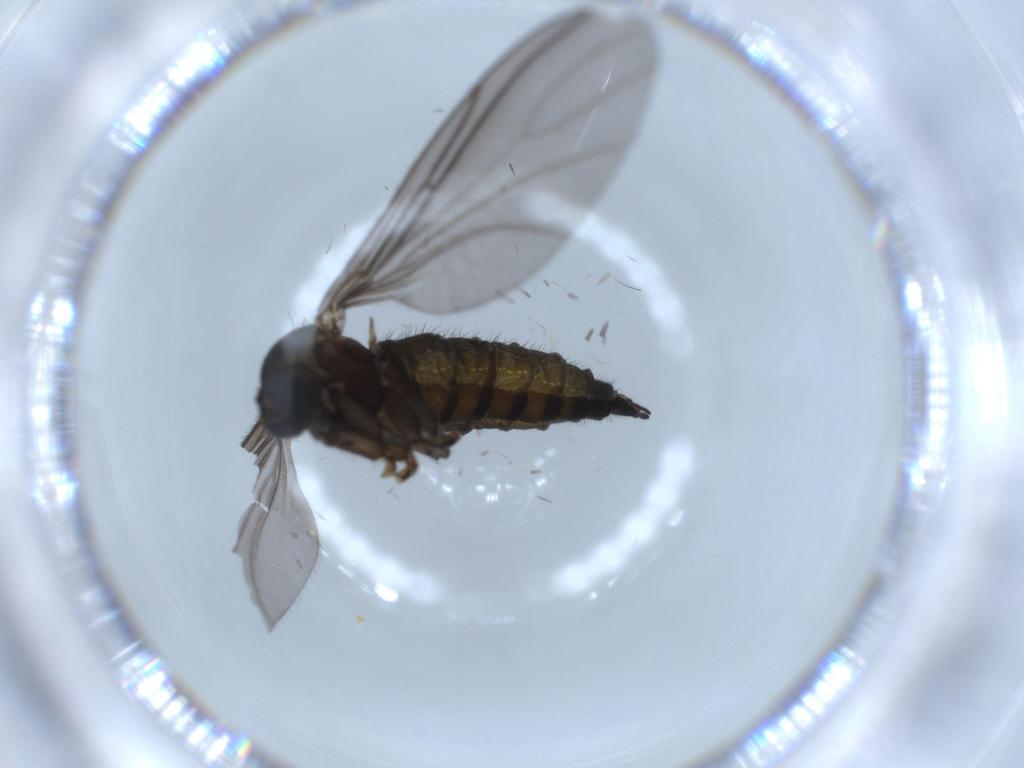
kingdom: Animalia
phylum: Arthropoda
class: Insecta
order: Diptera
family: Sciaridae
